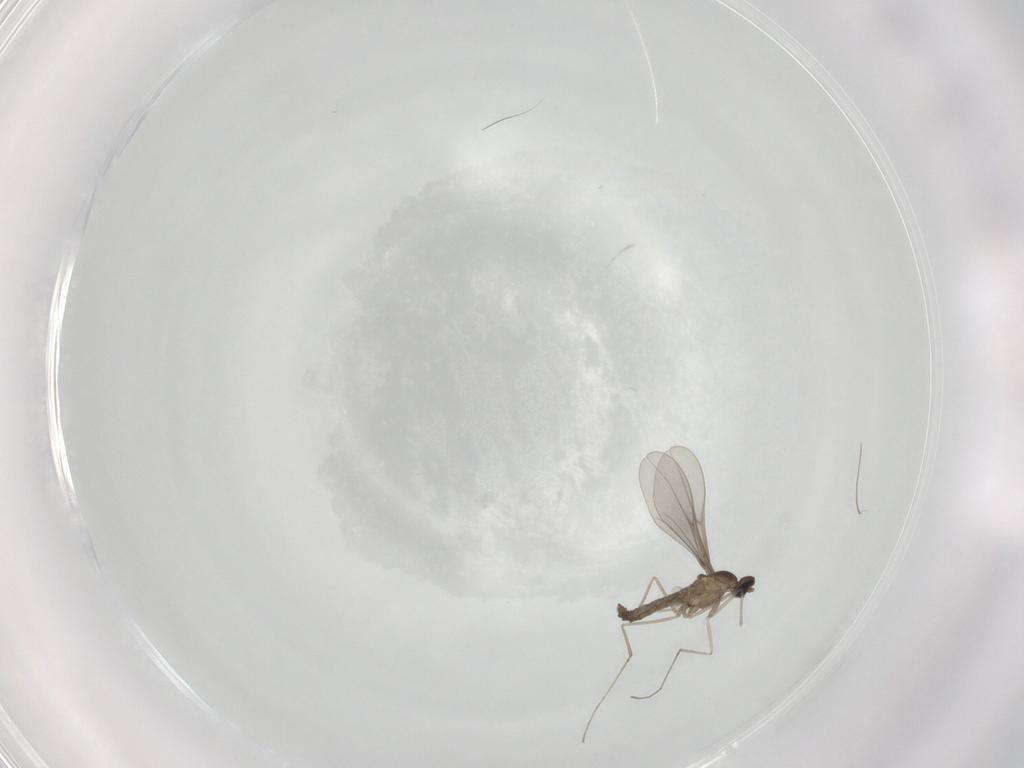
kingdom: Animalia
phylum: Arthropoda
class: Insecta
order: Diptera
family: Cecidomyiidae
